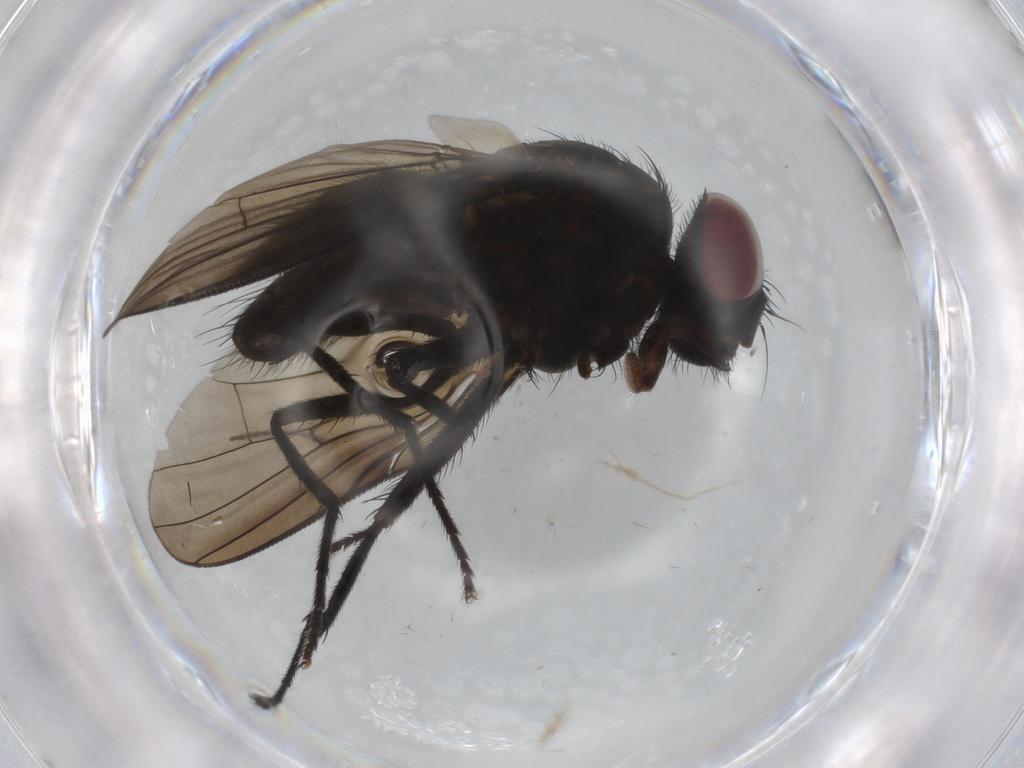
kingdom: Animalia
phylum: Arthropoda
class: Insecta
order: Diptera
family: Muscidae
